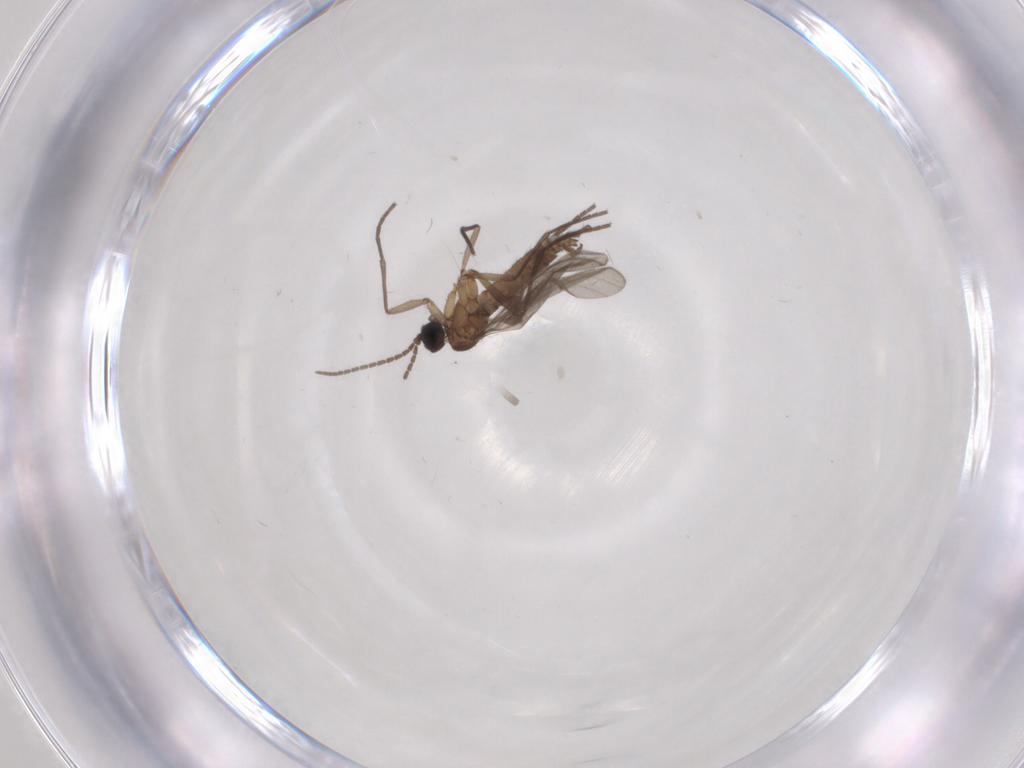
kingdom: Animalia
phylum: Arthropoda
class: Insecta
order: Diptera
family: Sciaridae
